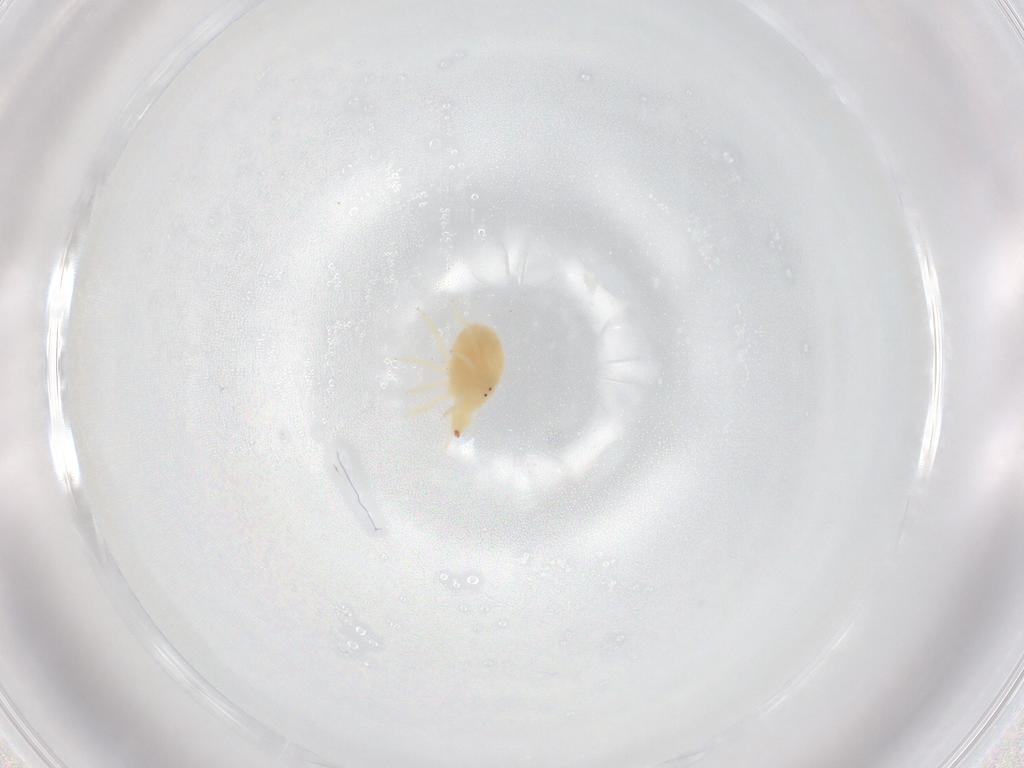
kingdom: Animalia
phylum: Arthropoda
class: Arachnida
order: Trombidiformes
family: Bdellidae
